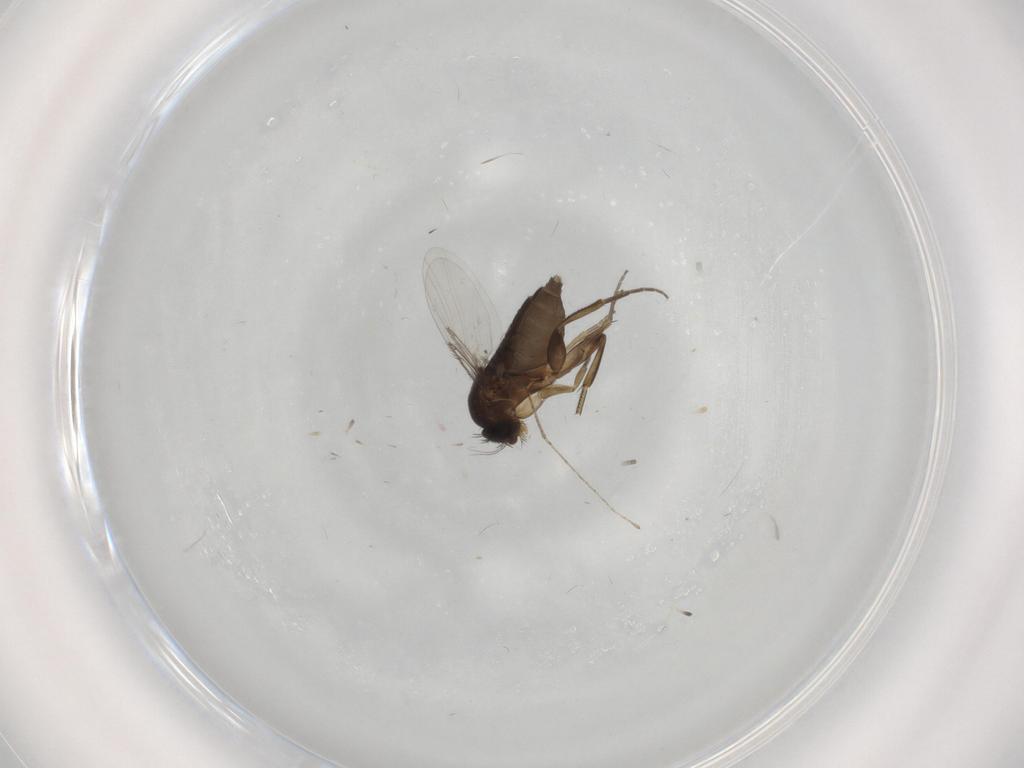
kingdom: Animalia
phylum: Arthropoda
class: Insecta
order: Diptera
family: Phoridae
